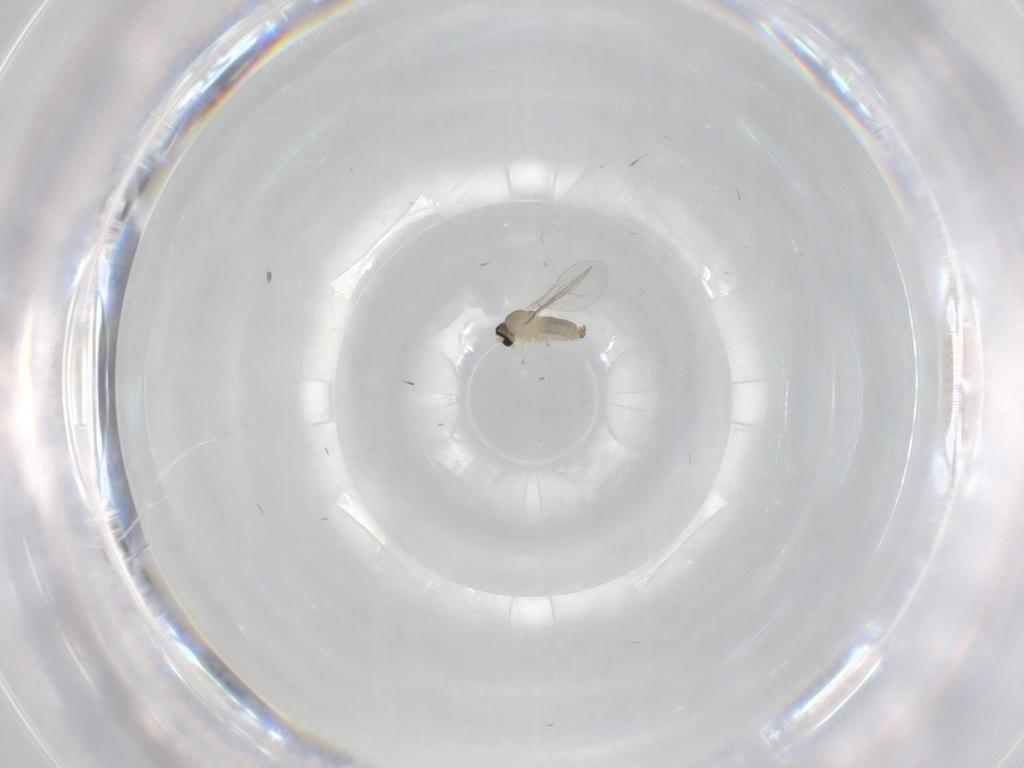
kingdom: Animalia
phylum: Arthropoda
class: Insecta
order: Diptera
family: Cecidomyiidae
